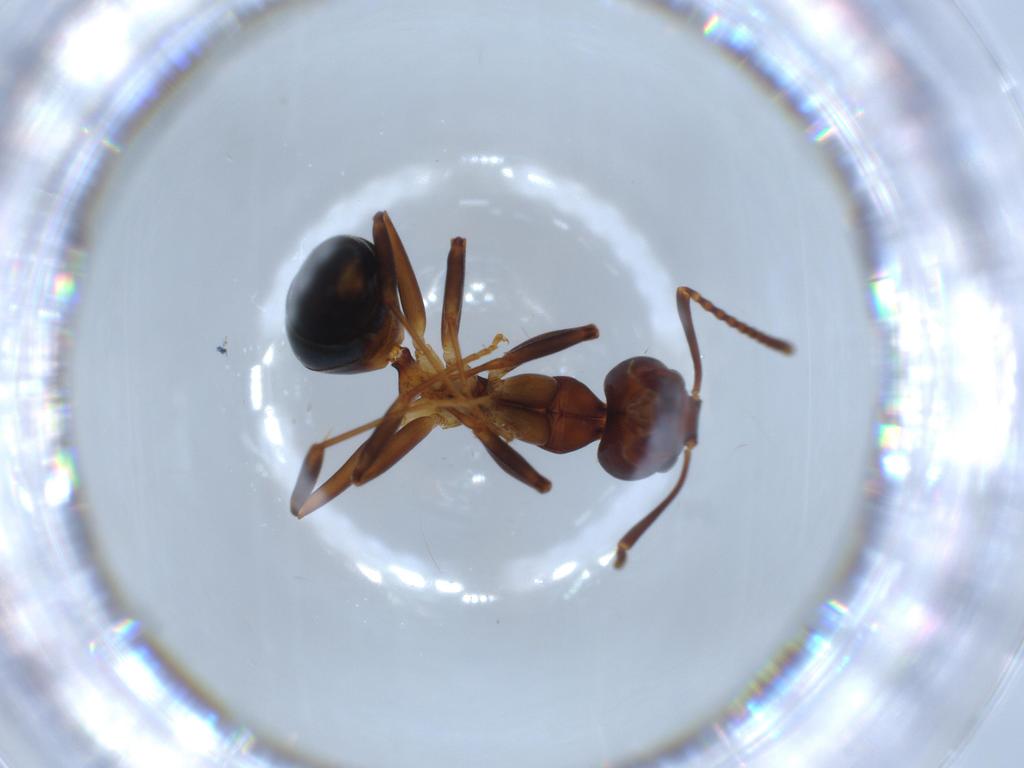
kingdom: Animalia
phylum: Arthropoda
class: Insecta
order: Hymenoptera
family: Formicidae
